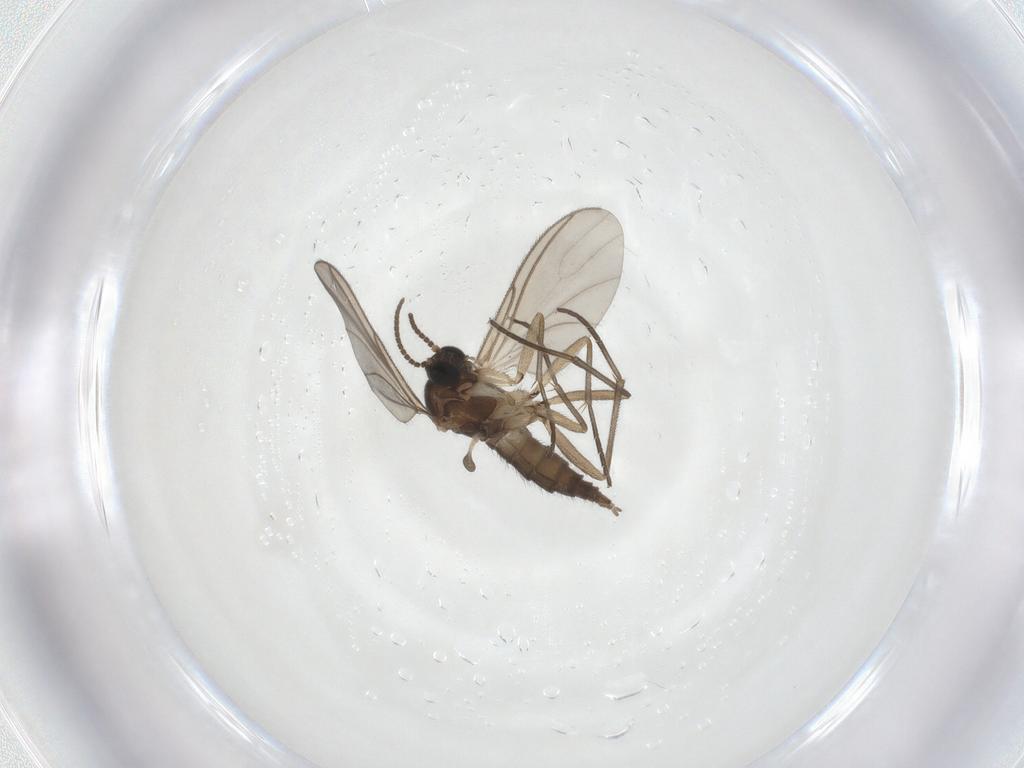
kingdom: Animalia
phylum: Arthropoda
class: Insecta
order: Diptera
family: Sciaridae
